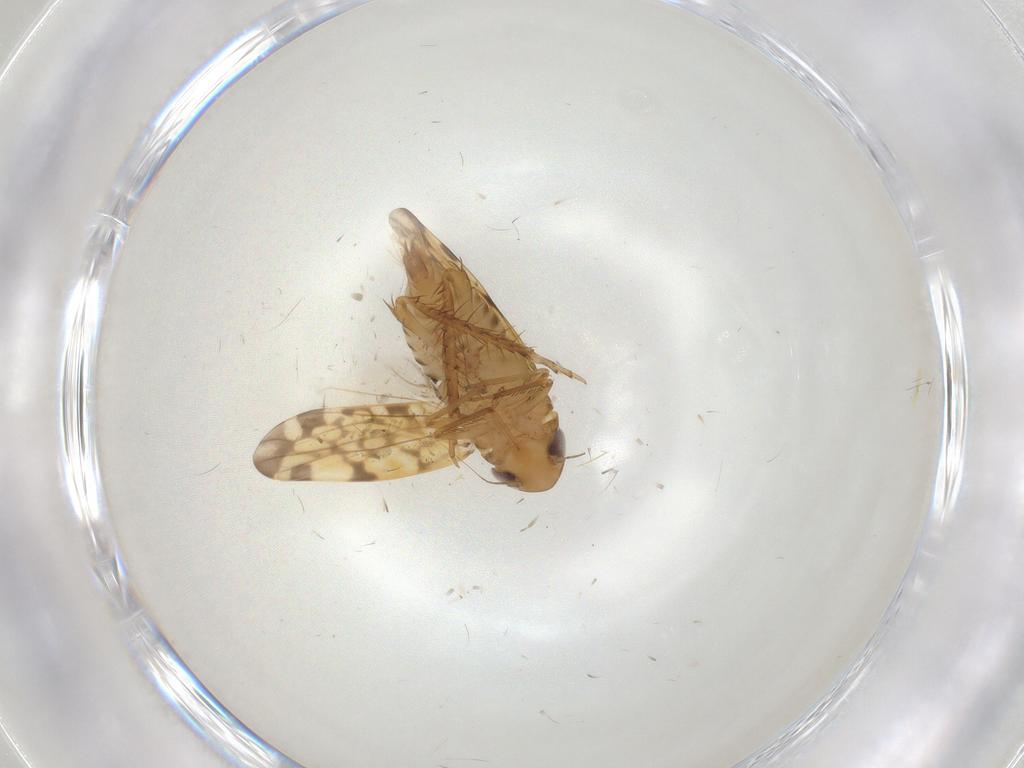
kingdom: Animalia
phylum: Arthropoda
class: Insecta
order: Hemiptera
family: Cicadellidae
